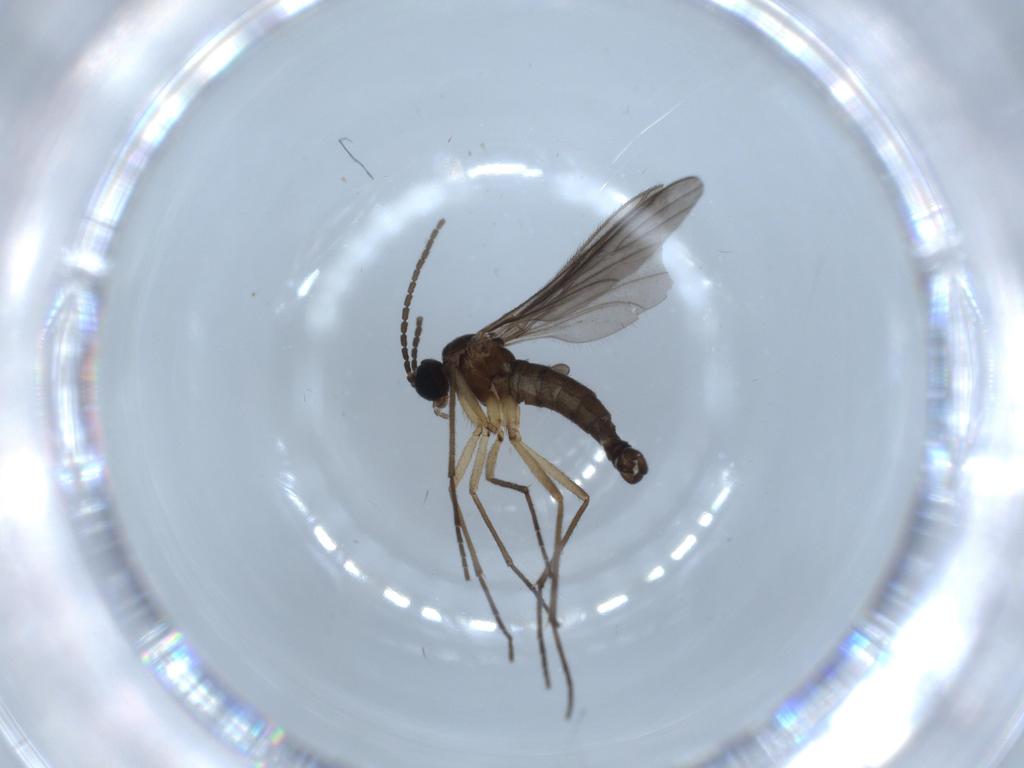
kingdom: Animalia
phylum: Arthropoda
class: Insecta
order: Diptera
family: Sciaridae
